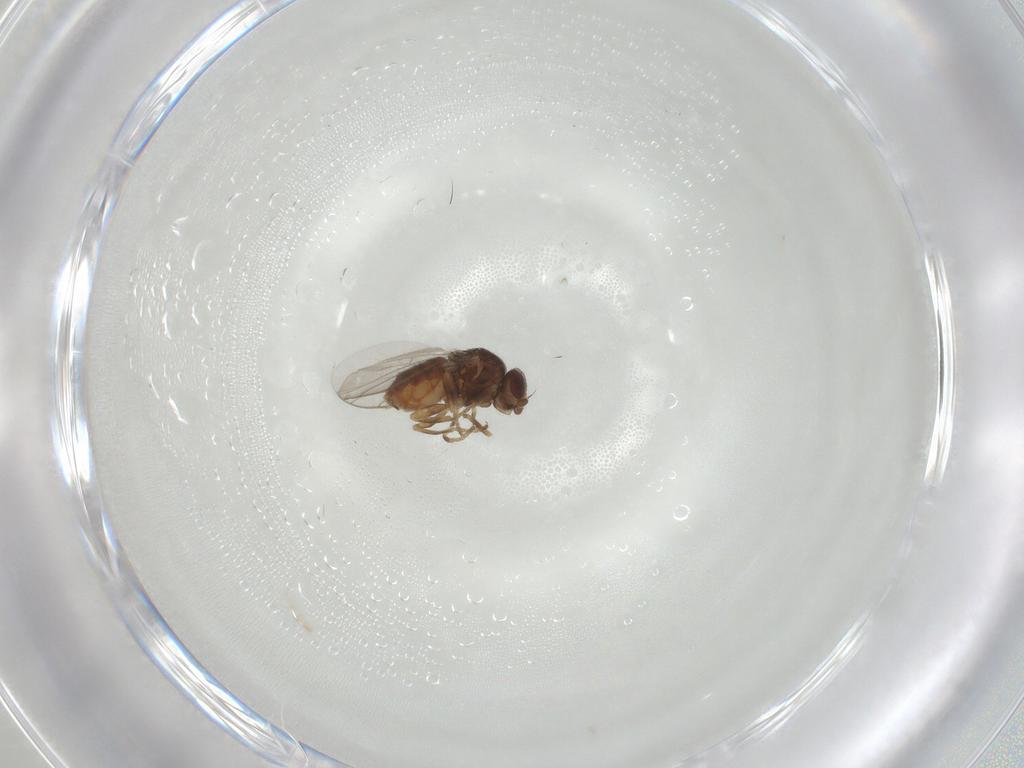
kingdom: Animalia
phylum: Arthropoda
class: Insecta
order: Diptera
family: Chloropidae
